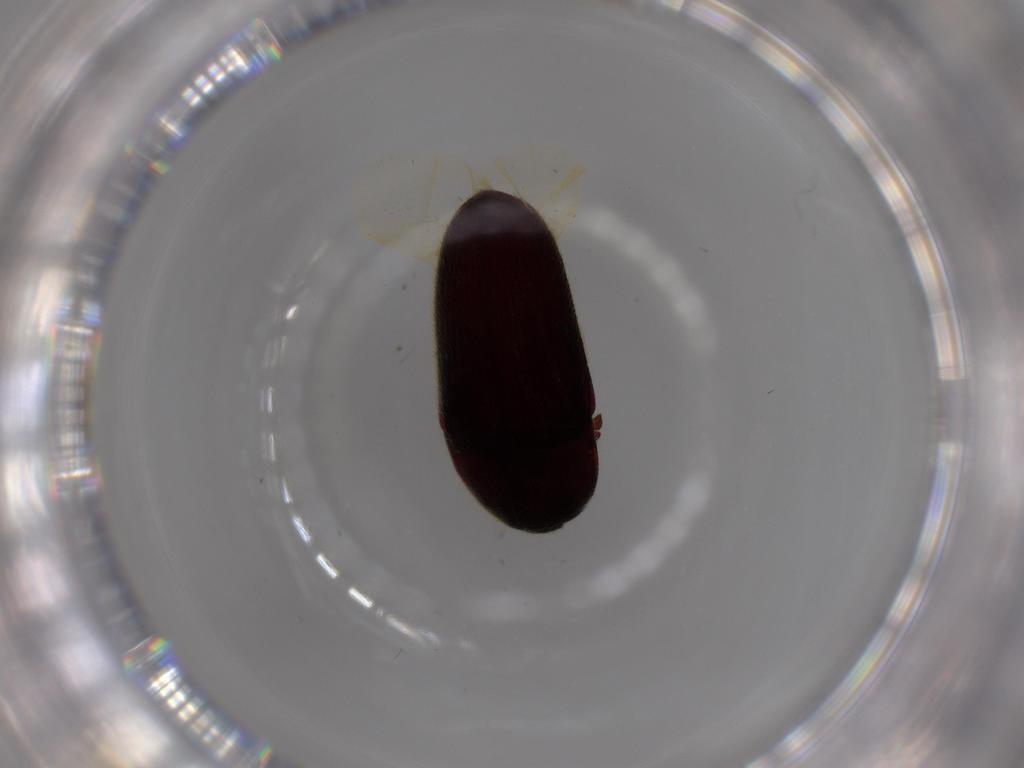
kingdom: Animalia
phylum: Arthropoda
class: Insecta
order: Coleoptera
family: Throscidae
